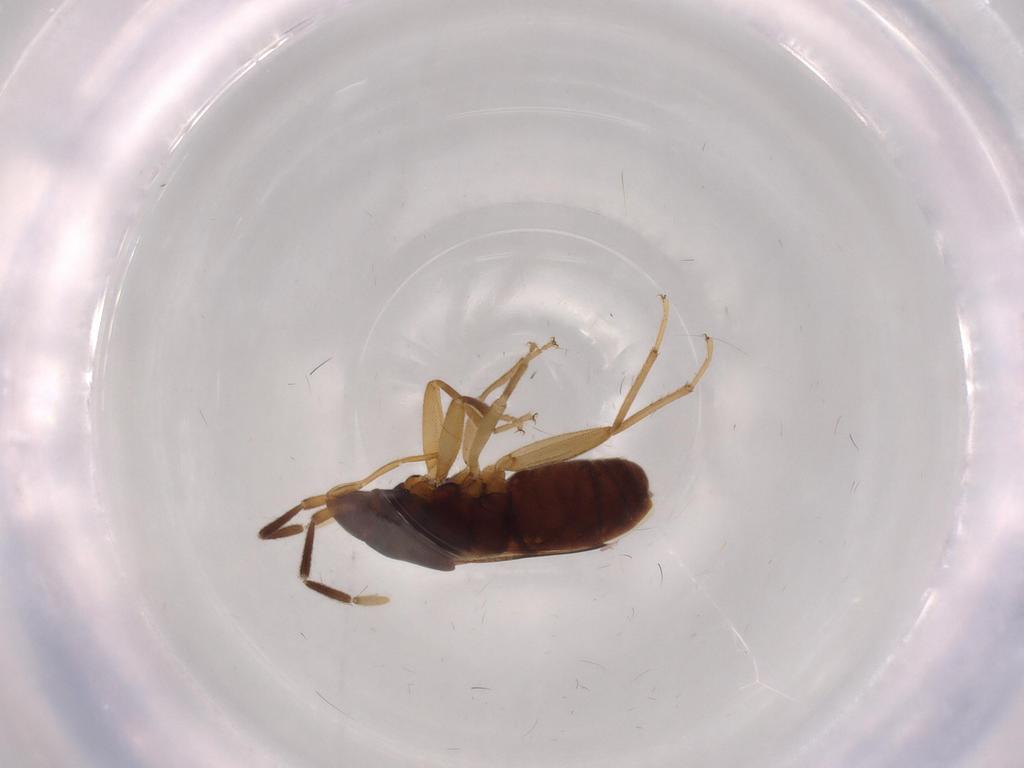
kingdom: Animalia
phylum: Arthropoda
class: Insecta
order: Hemiptera
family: Rhyparochromidae
